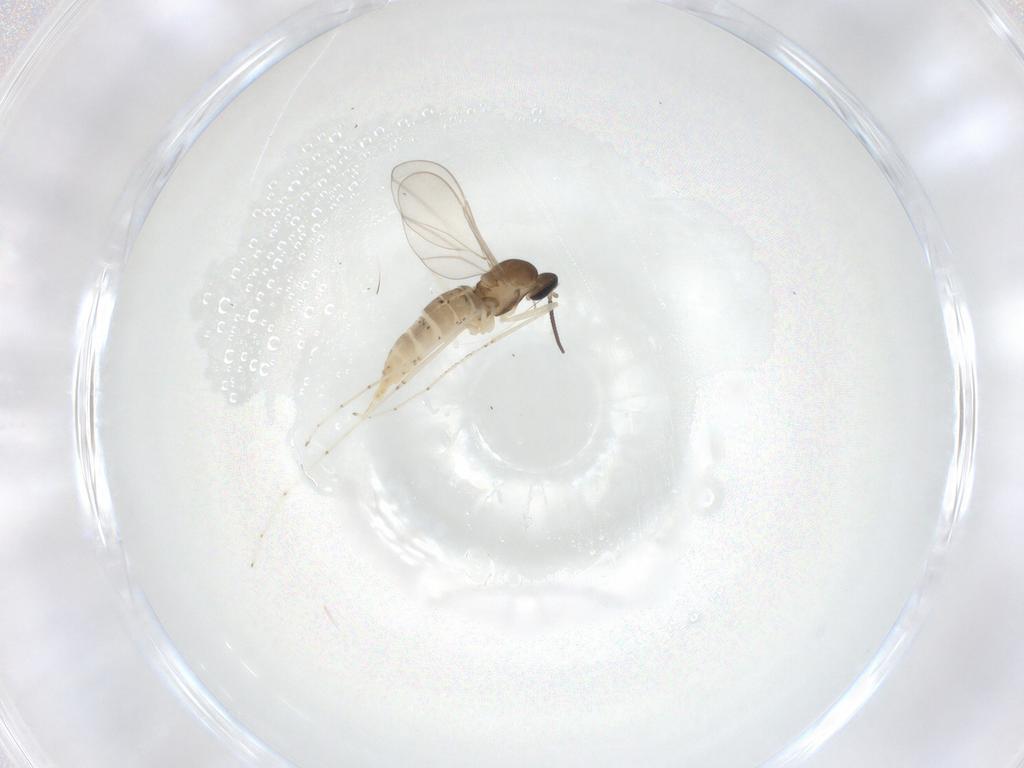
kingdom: Animalia
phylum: Arthropoda
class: Insecta
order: Diptera
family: Cecidomyiidae
